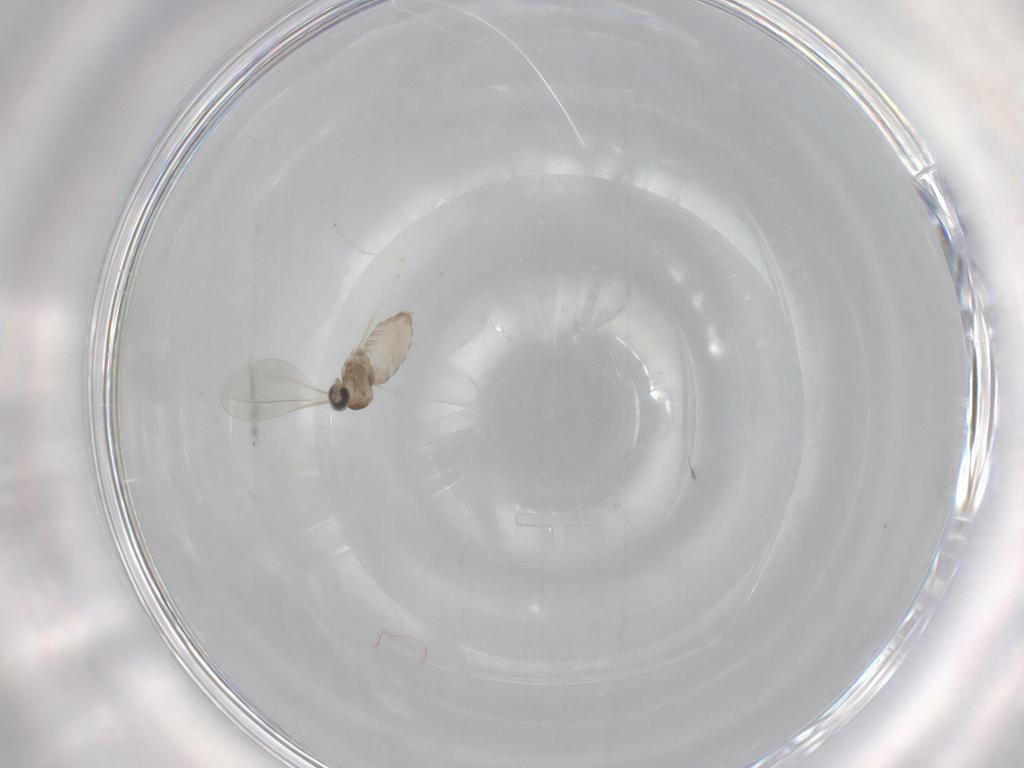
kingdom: Animalia
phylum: Arthropoda
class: Insecta
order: Diptera
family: Cecidomyiidae
